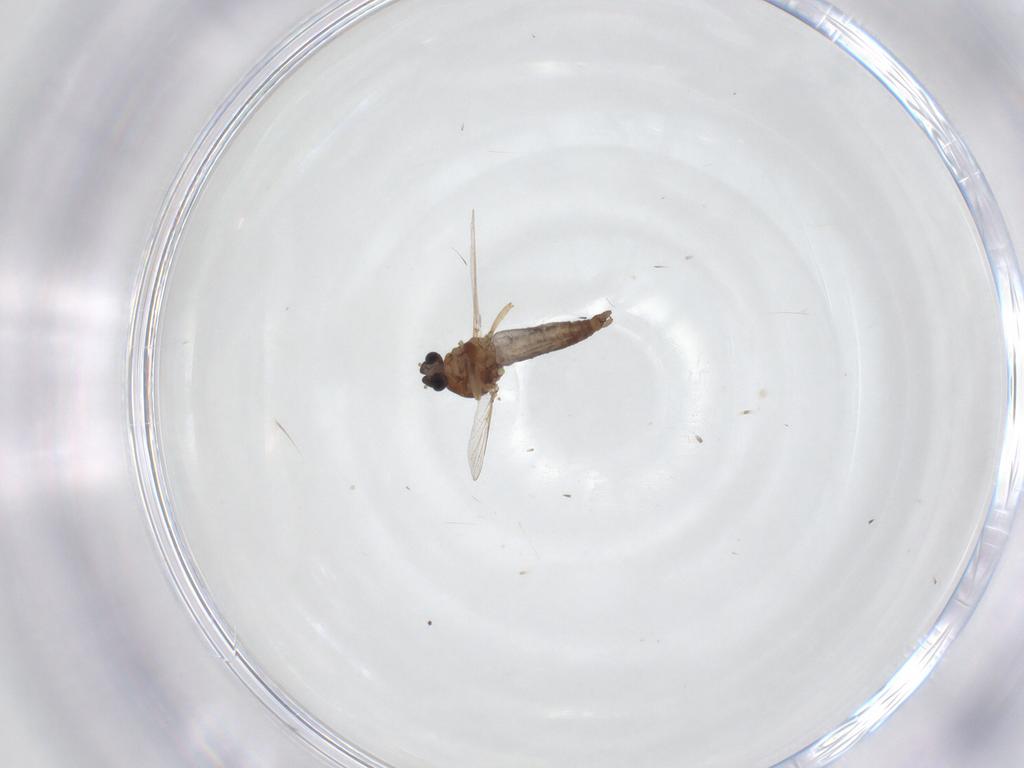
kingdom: Animalia
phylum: Arthropoda
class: Insecta
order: Diptera
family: Ceratopogonidae
